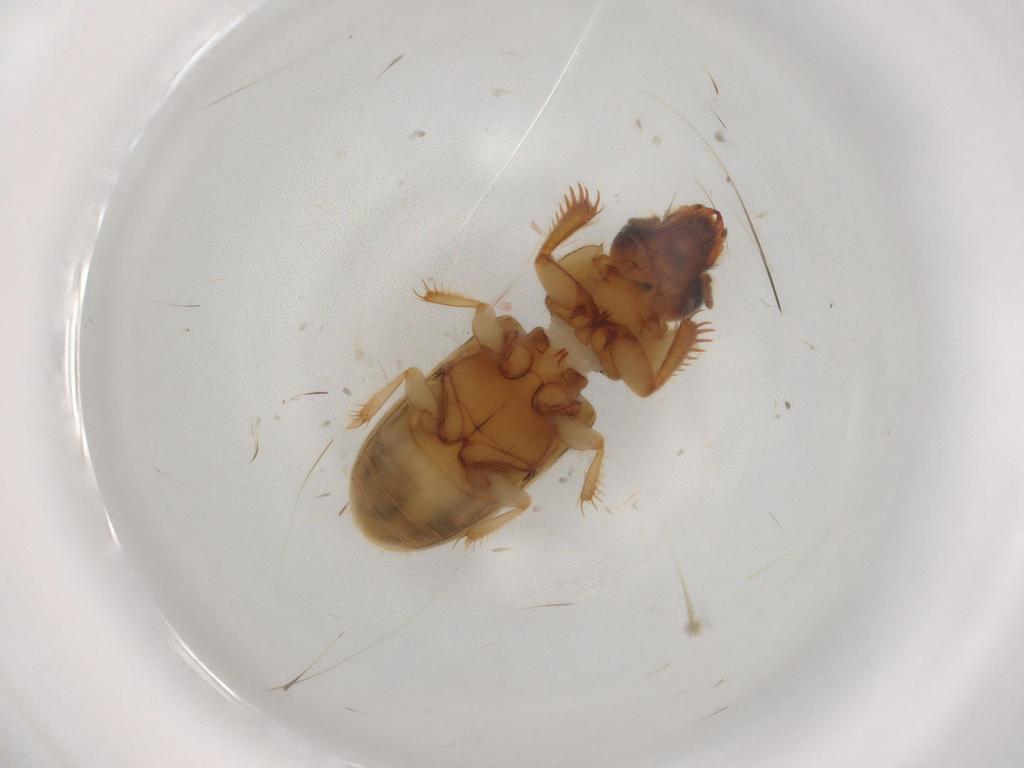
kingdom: Animalia
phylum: Arthropoda
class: Insecta
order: Coleoptera
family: Heteroceridae
